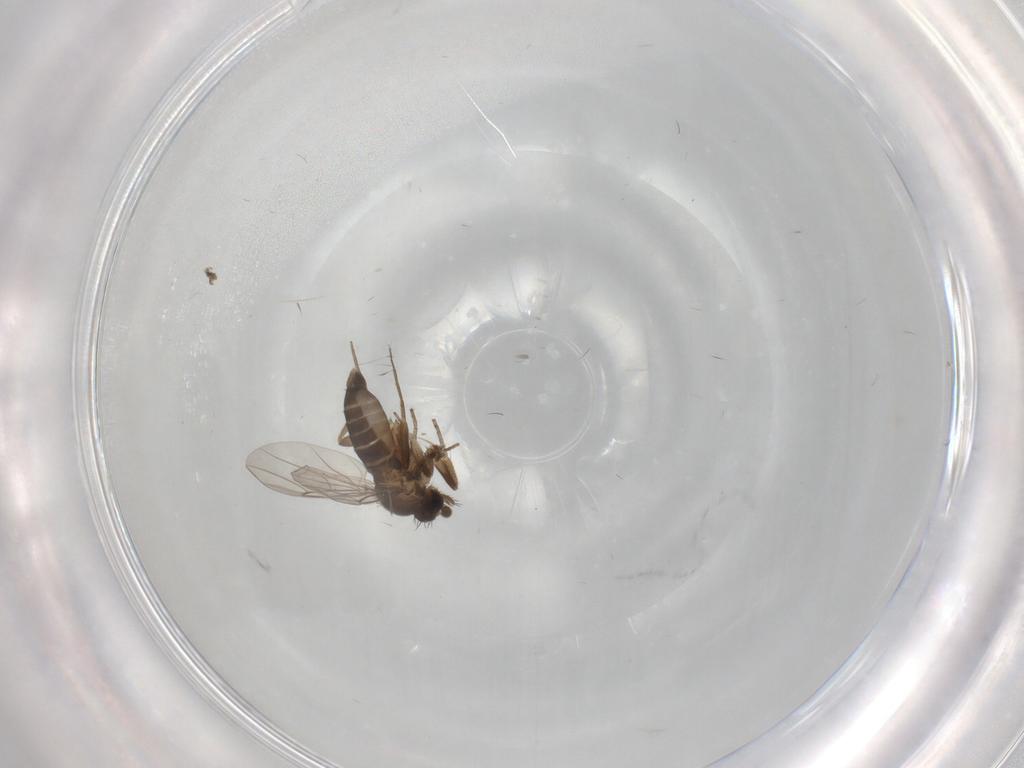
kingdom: Animalia
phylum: Arthropoda
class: Insecta
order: Diptera
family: Phoridae
